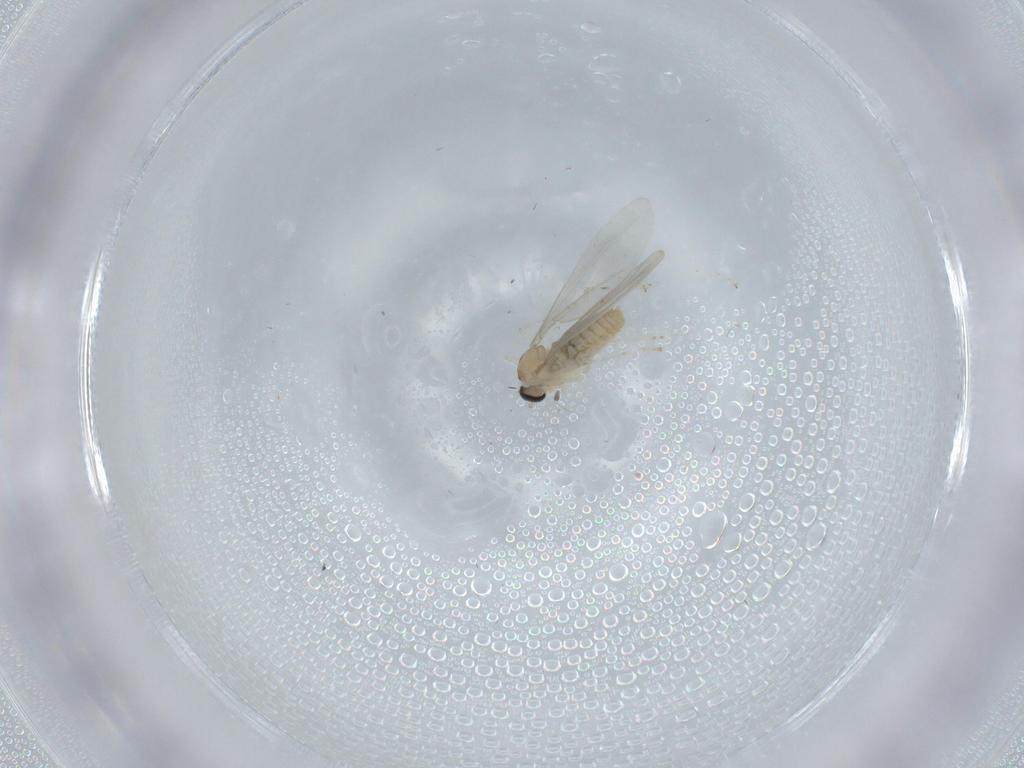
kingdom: Animalia
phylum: Arthropoda
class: Insecta
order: Diptera
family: Cecidomyiidae
